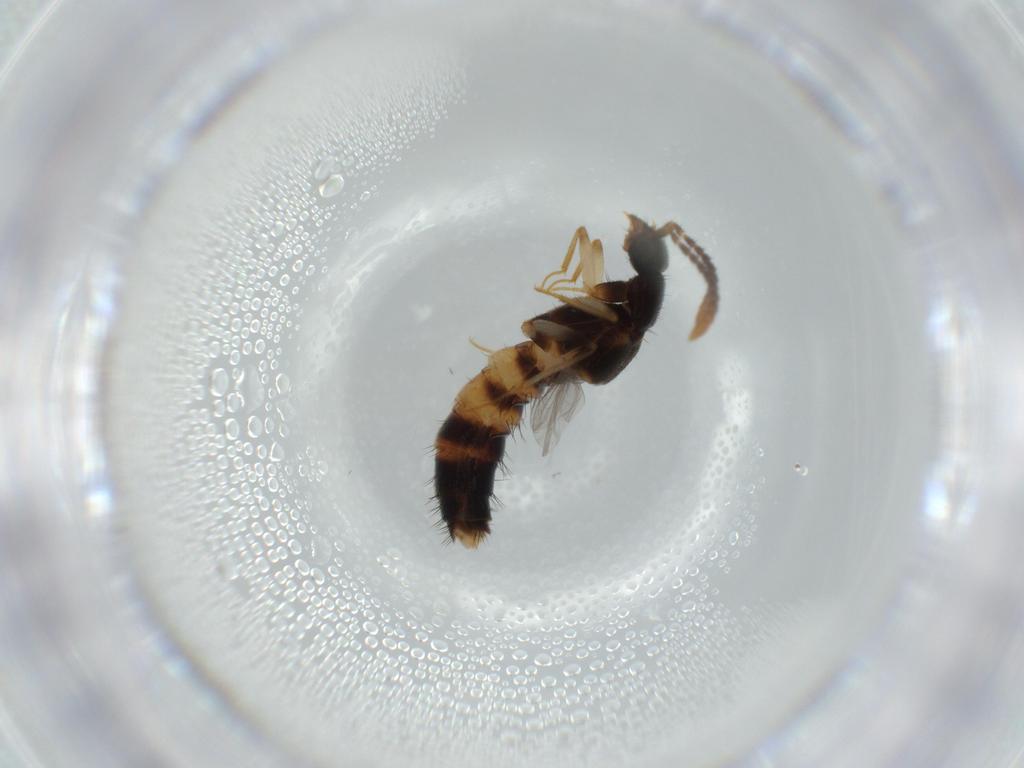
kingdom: Animalia
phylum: Arthropoda
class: Insecta
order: Coleoptera
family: Staphylinidae
